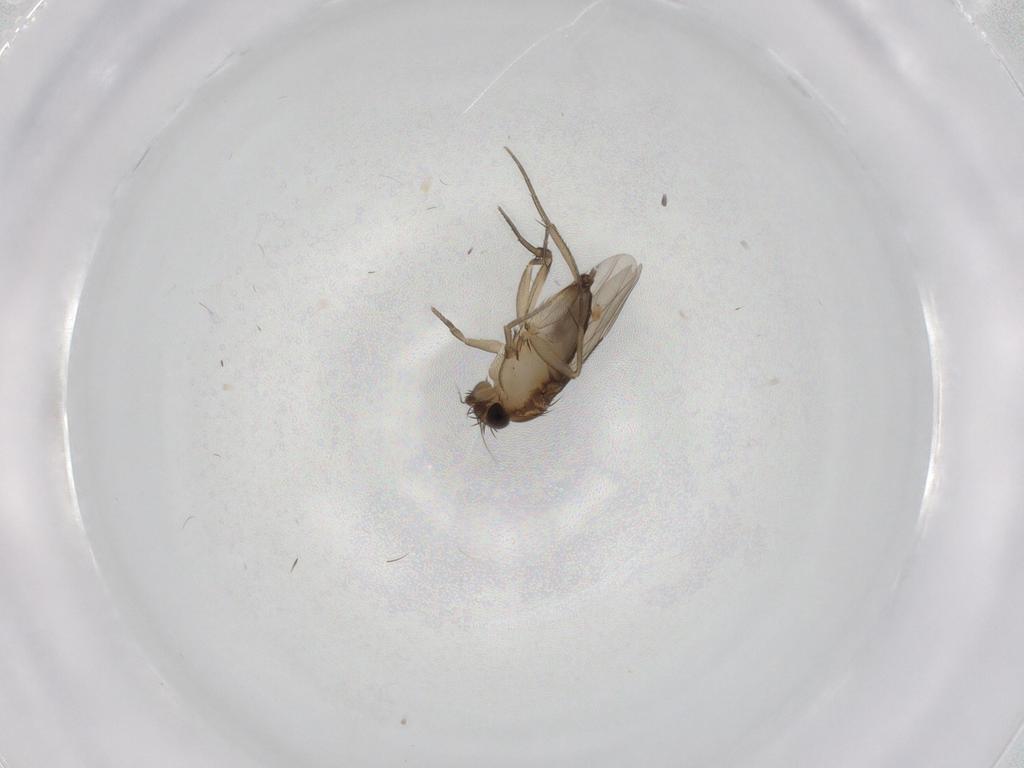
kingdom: Animalia
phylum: Arthropoda
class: Insecta
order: Diptera
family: Phoridae
